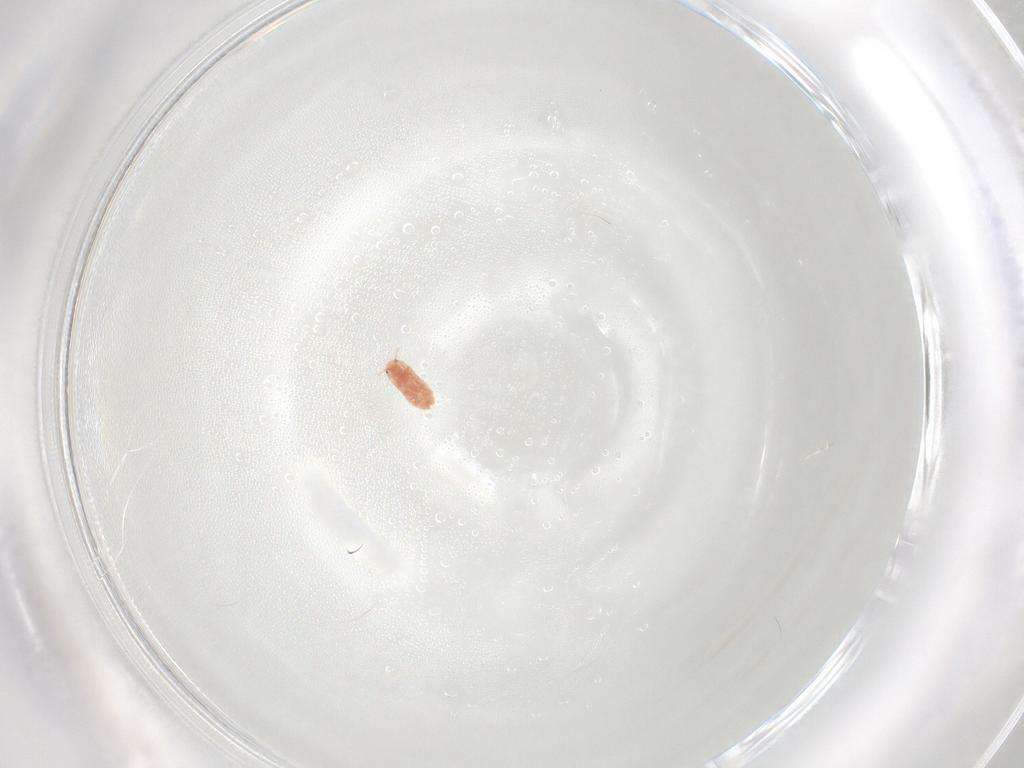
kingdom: Animalia
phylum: Arthropoda
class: Insecta
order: Hemiptera
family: Coccidae
